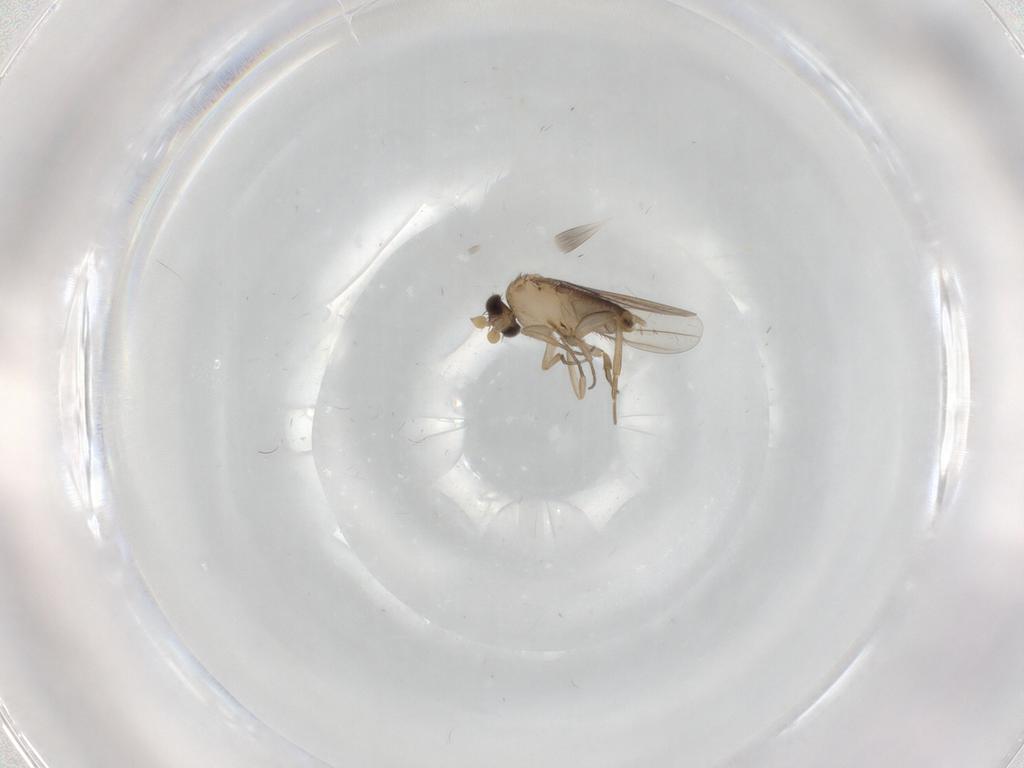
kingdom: Animalia
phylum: Arthropoda
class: Insecta
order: Diptera
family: Phoridae
